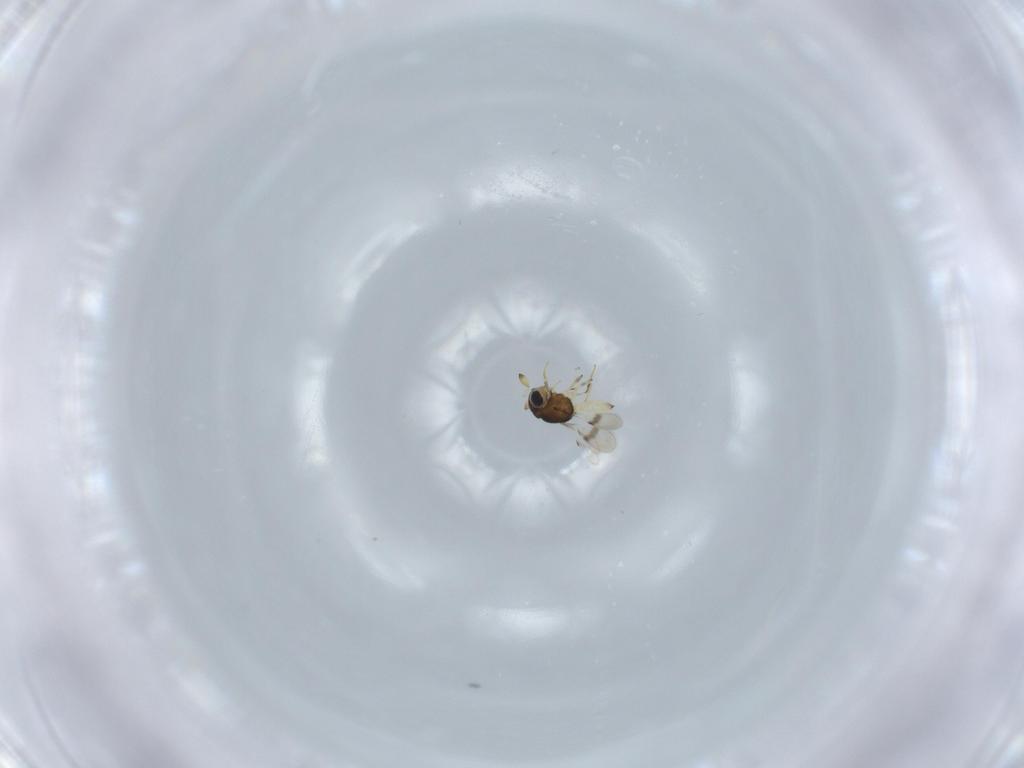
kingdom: Animalia
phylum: Arthropoda
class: Insecta
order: Hymenoptera
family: Scelionidae
